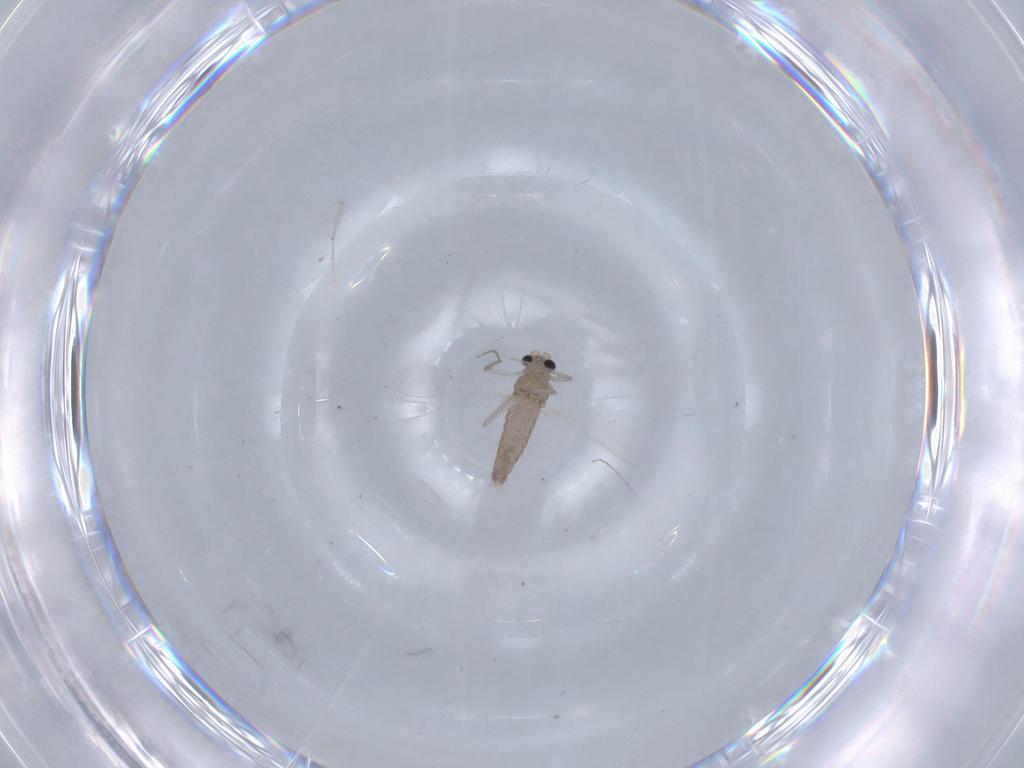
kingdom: Animalia
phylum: Arthropoda
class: Insecta
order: Diptera
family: Chironomidae
